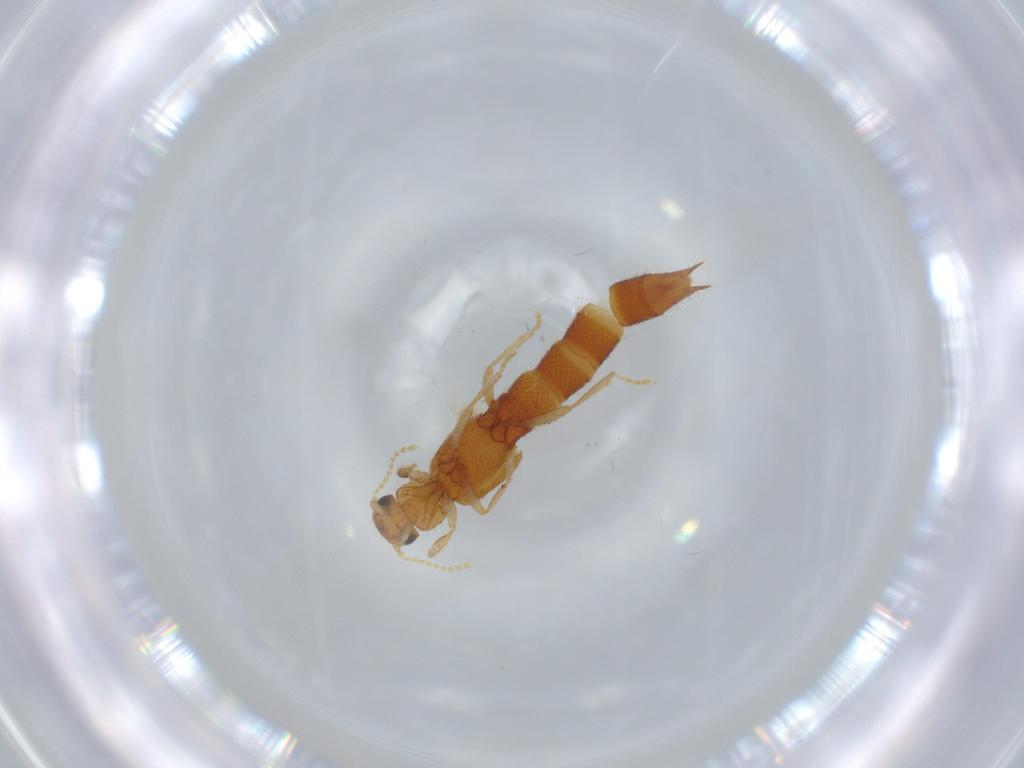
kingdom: Animalia
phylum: Arthropoda
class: Insecta
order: Coleoptera
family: Staphylinidae
